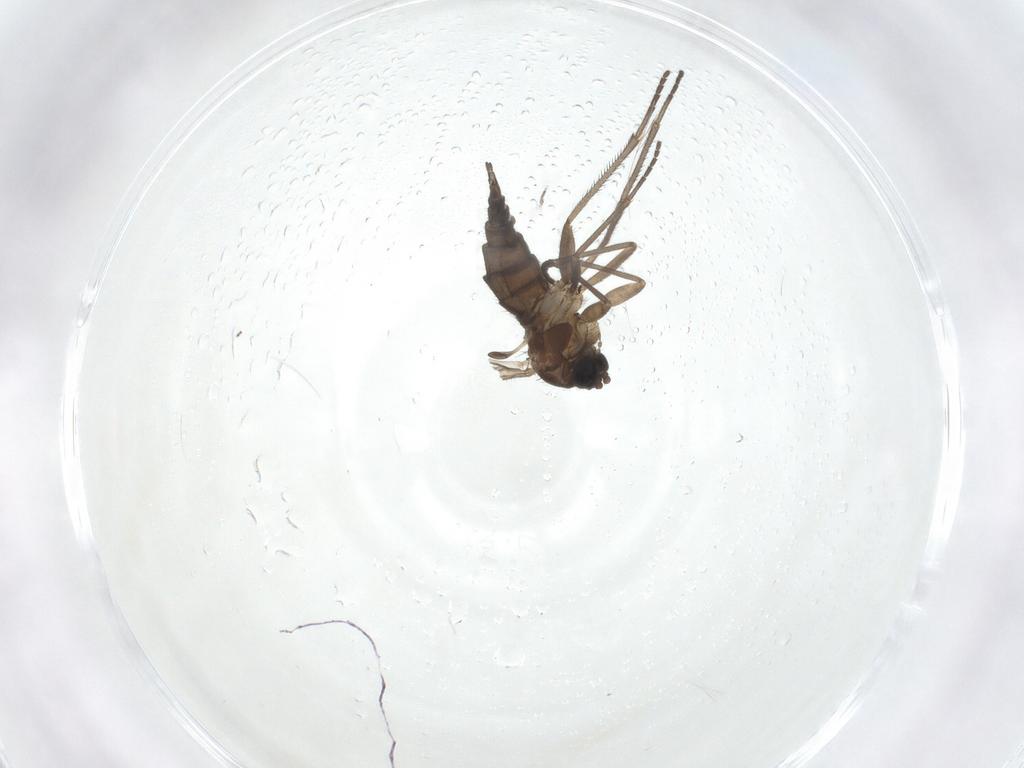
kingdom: Animalia
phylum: Arthropoda
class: Insecta
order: Diptera
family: Sciaridae
